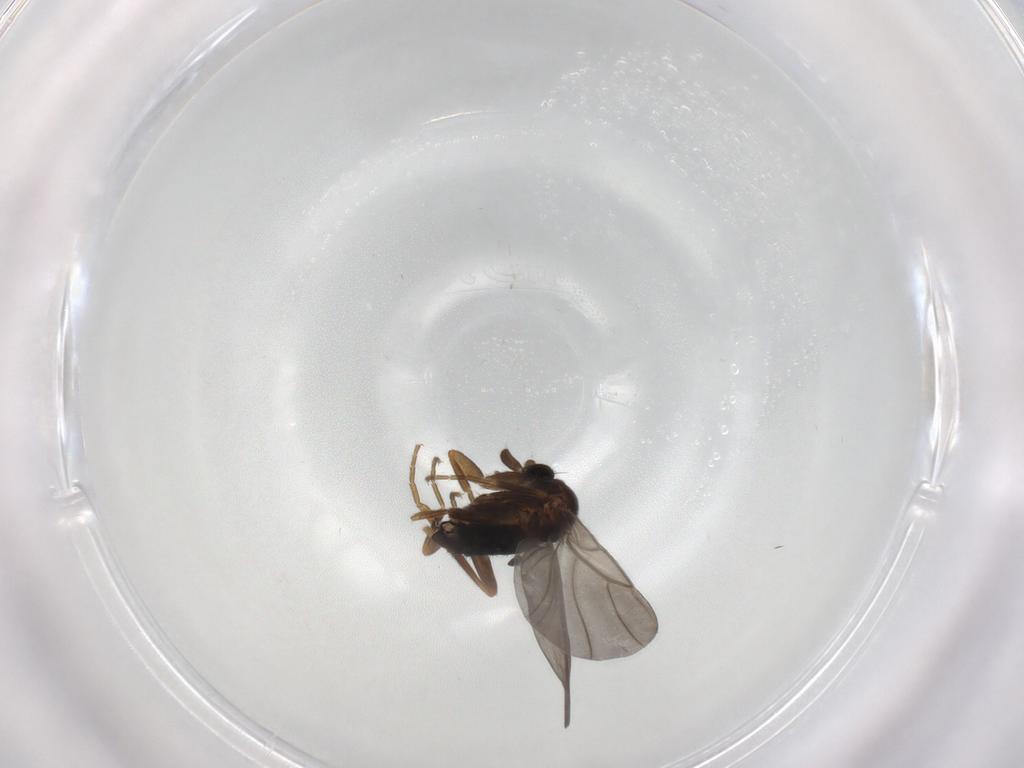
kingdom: Animalia
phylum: Arthropoda
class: Insecta
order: Diptera
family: Phoridae
